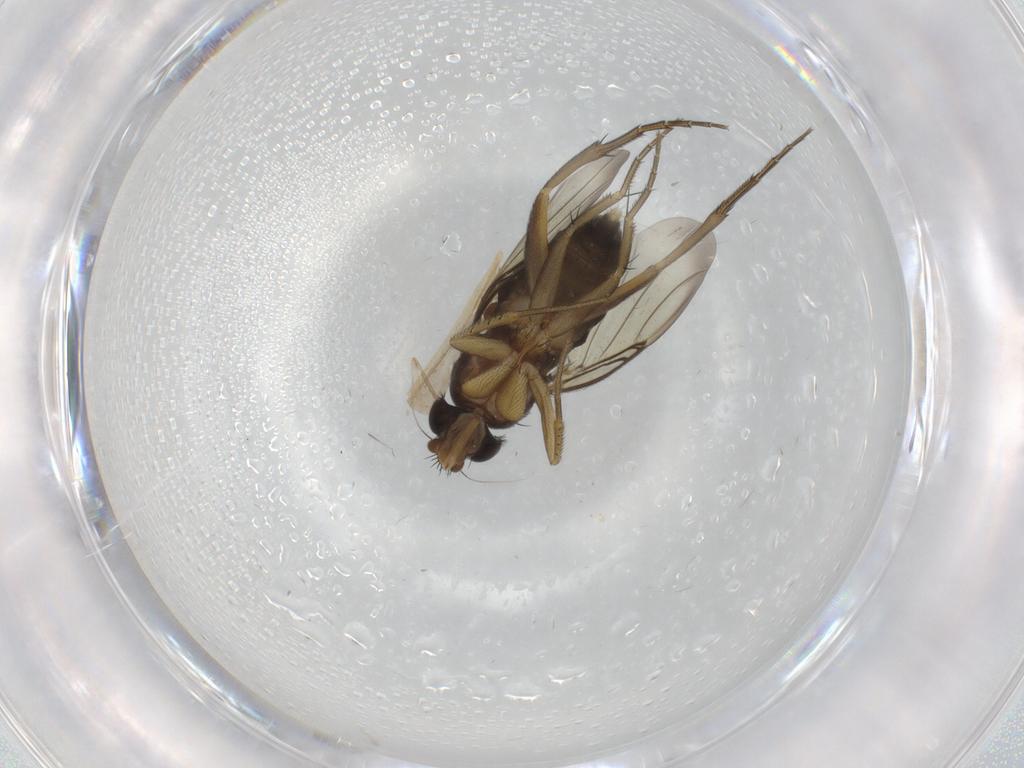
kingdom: Animalia
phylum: Arthropoda
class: Insecta
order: Diptera
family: Phoridae
